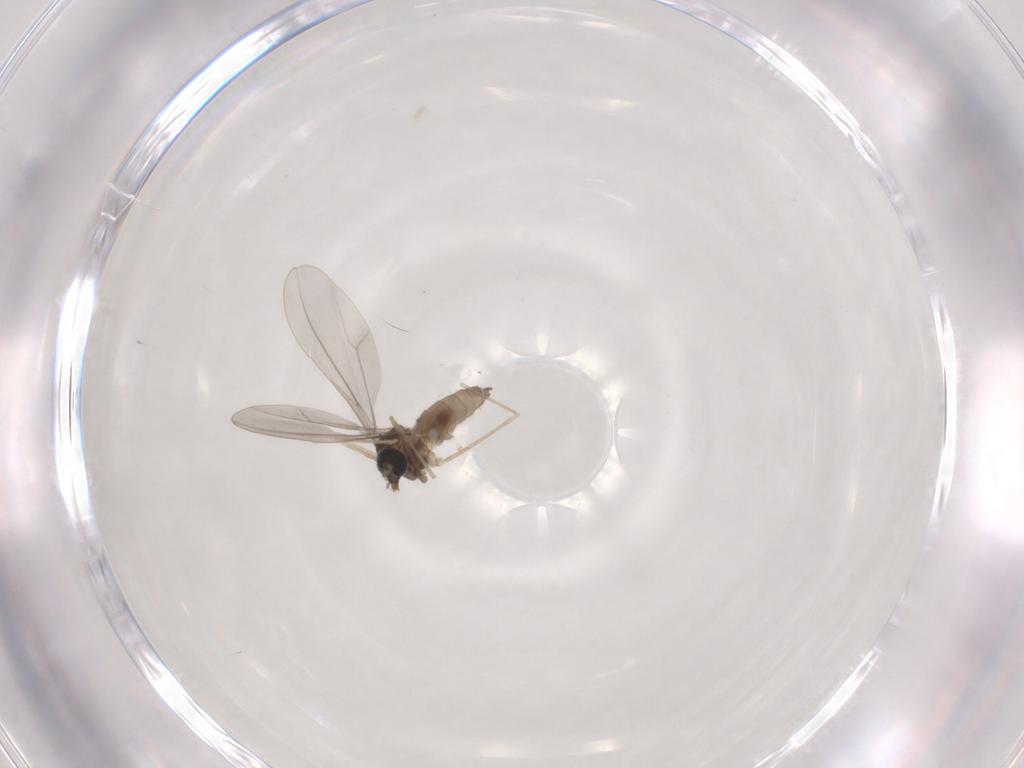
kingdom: Animalia
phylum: Arthropoda
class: Insecta
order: Diptera
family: Cecidomyiidae
